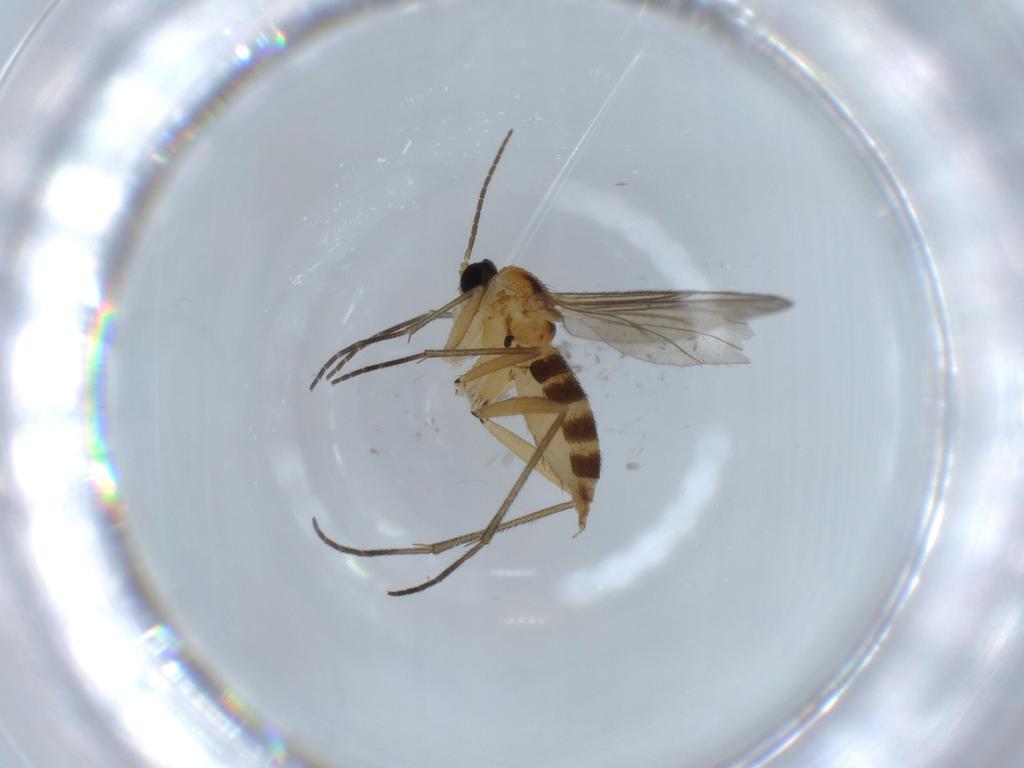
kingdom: Animalia
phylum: Arthropoda
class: Insecta
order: Diptera
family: Sciaridae
